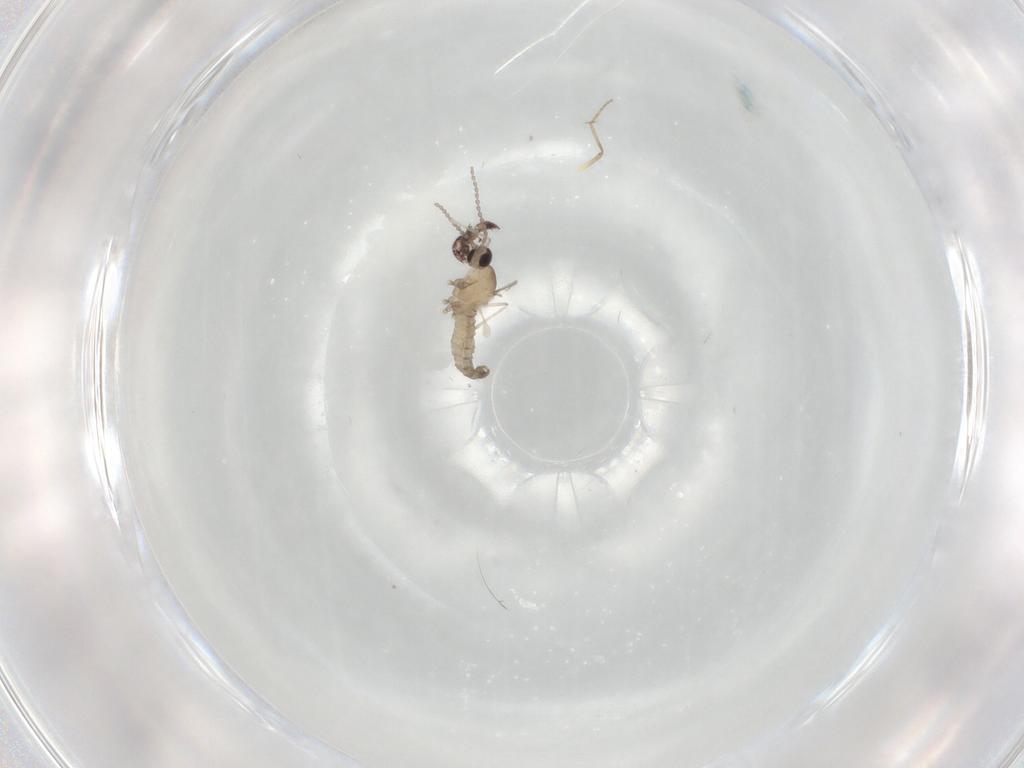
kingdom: Animalia
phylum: Arthropoda
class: Insecta
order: Diptera
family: Chironomidae
